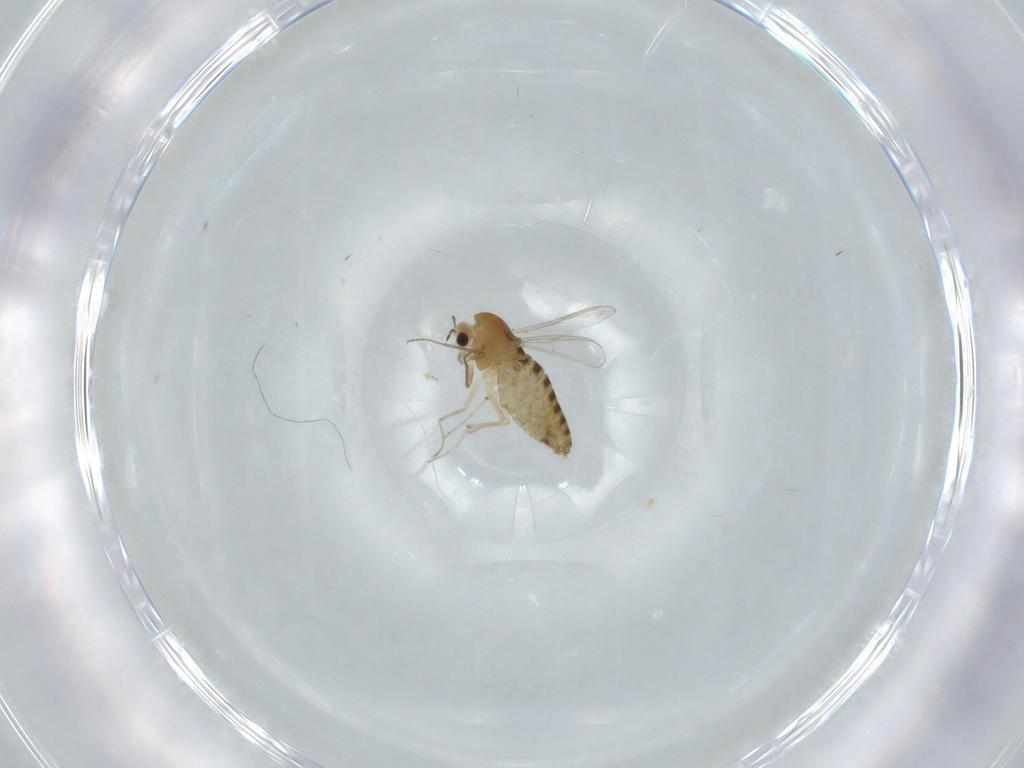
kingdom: Animalia
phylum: Arthropoda
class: Insecta
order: Diptera
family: Chironomidae
